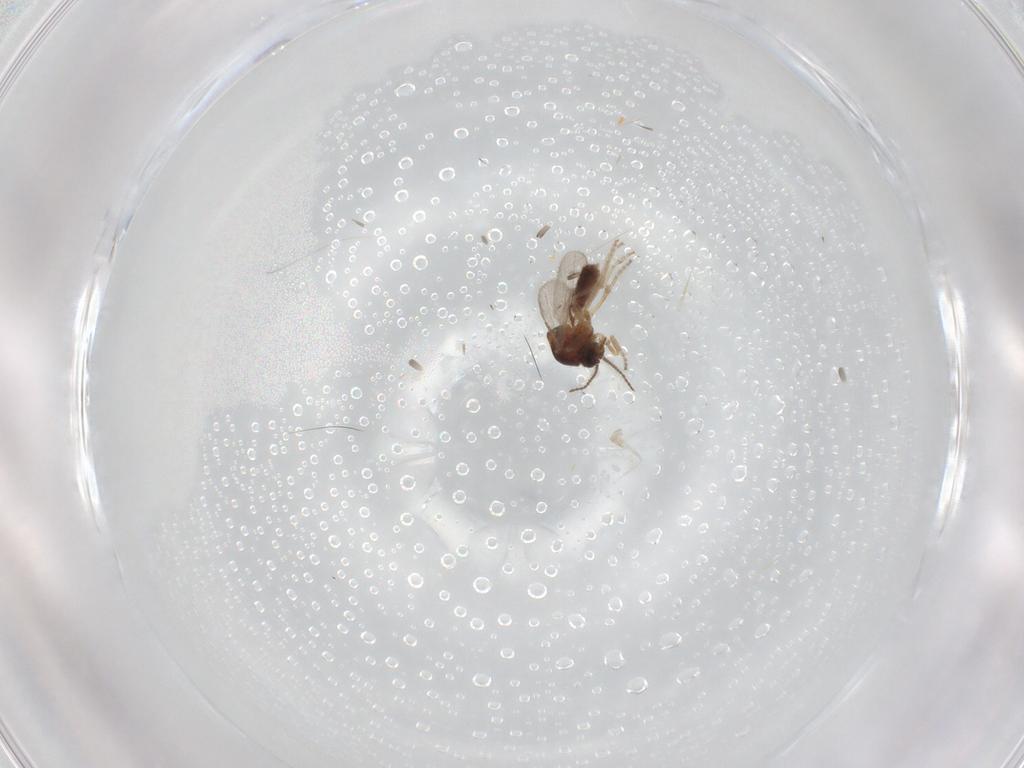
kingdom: Animalia
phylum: Arthropoda
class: Insecta
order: Diptera
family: Ceratopogonidae
